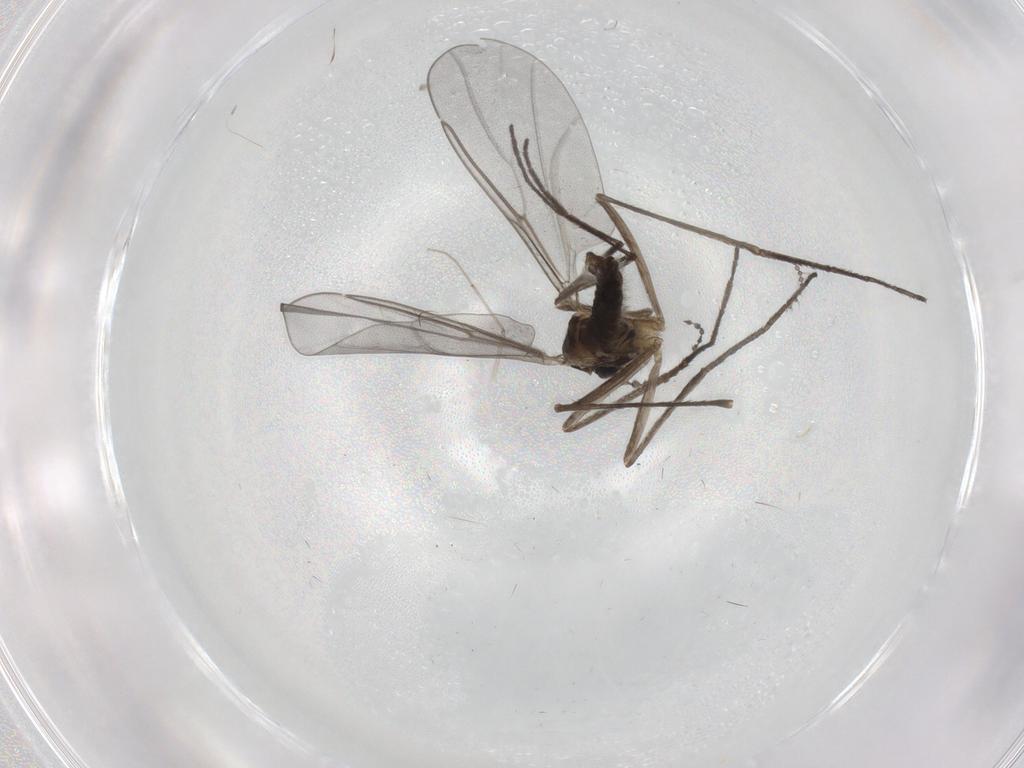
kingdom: Animalia
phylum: Arthropoda
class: Insecta
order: Diptera
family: Cecidomyiidae
